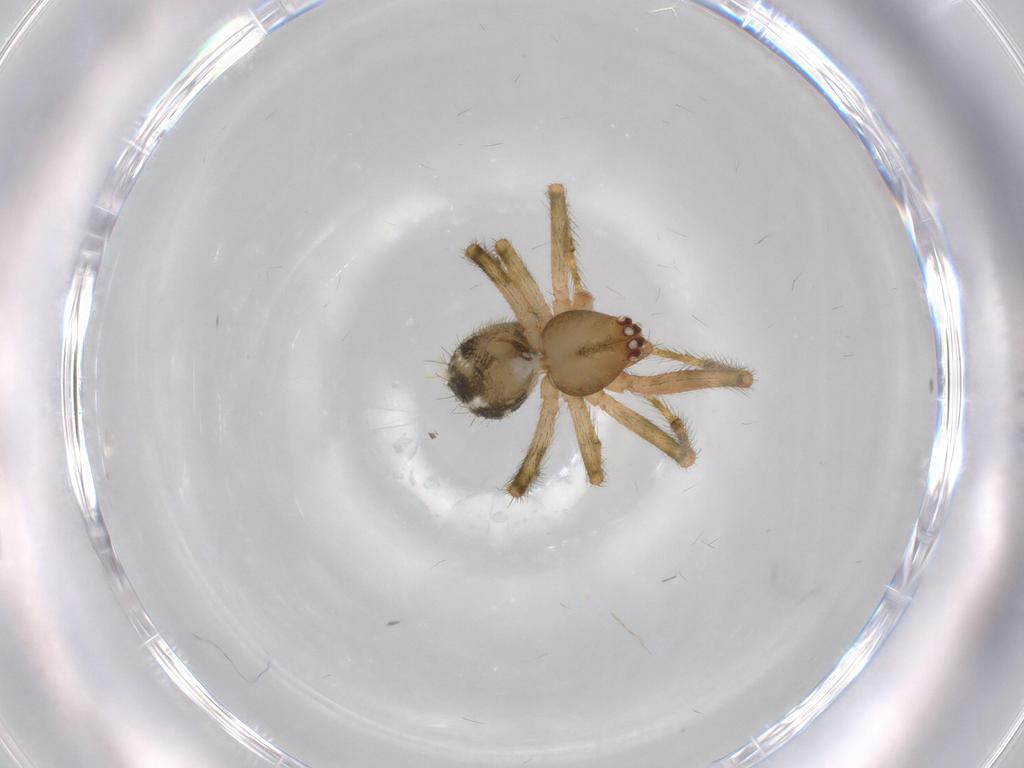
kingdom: Animalia
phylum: Arthropoda
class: Arachnida
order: Araneae
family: Theridiidae
